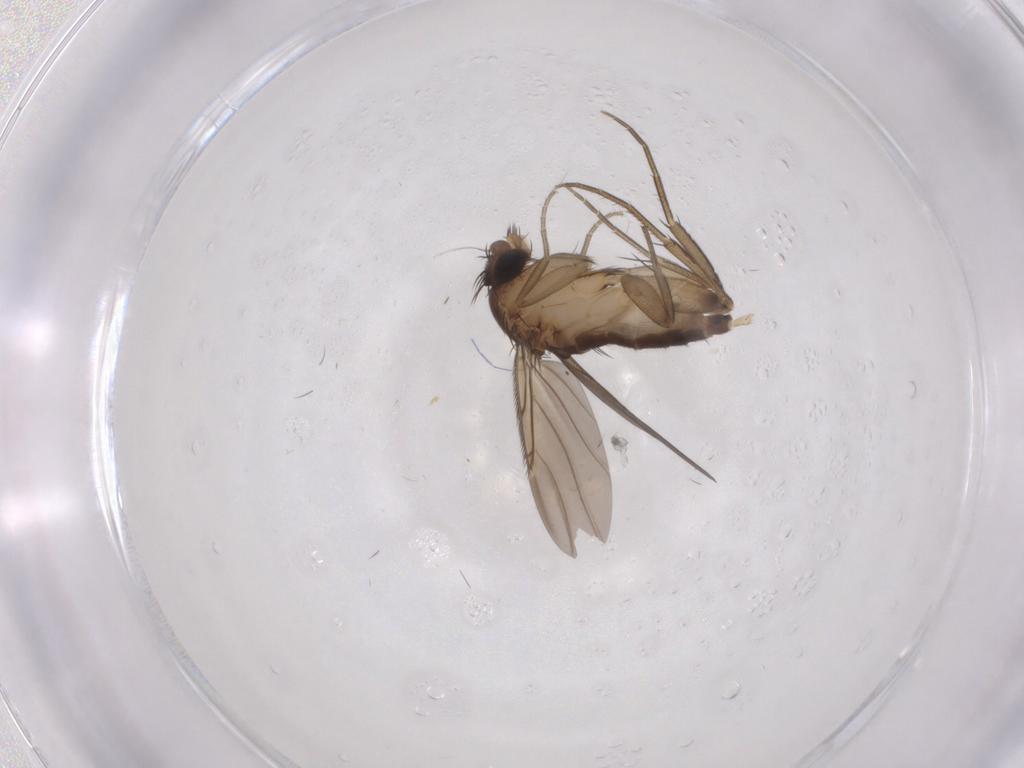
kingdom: Animalia
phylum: Arthropoda
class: Insecta
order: Diptera
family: Phoridae
